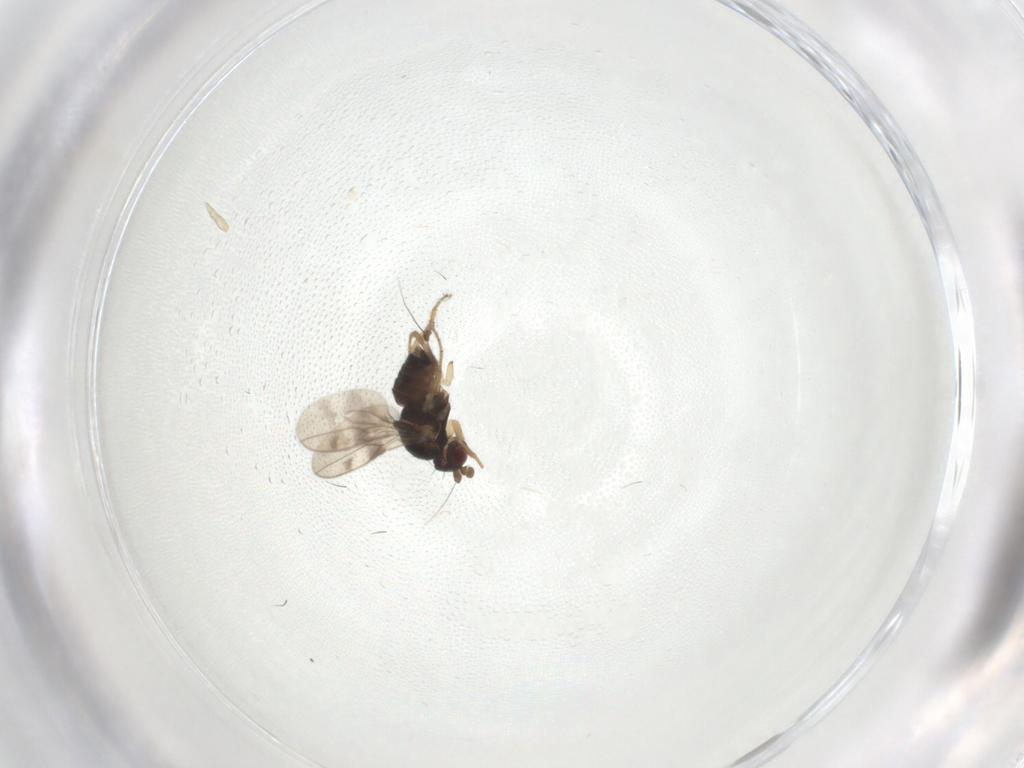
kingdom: Animalia
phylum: Arthropoda
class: Insecta
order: Diptera
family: Cecidomyiidae
